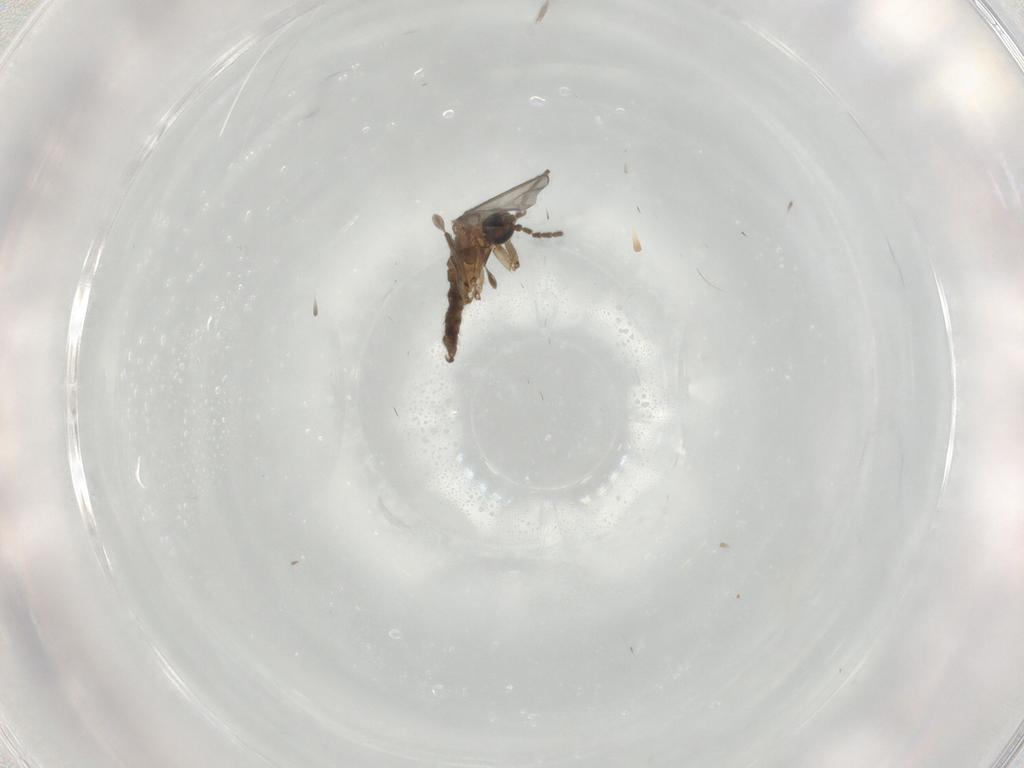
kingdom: Animalia
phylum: Arthropoda
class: Insecta
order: Diptera
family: Sciaridae
